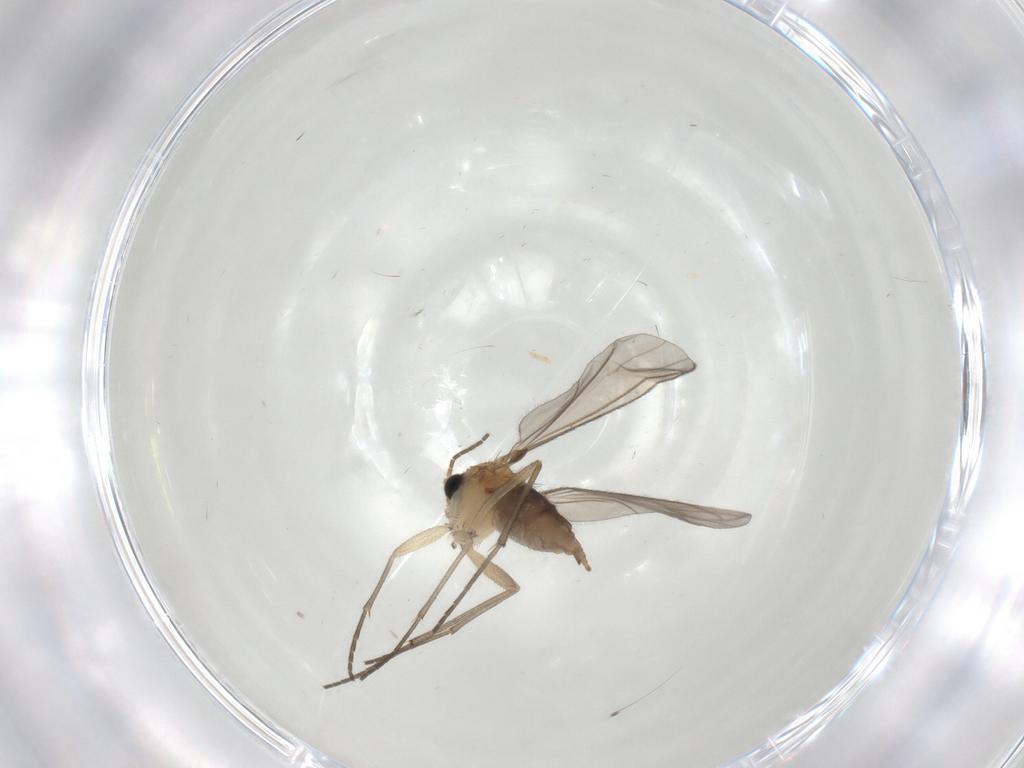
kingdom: Animalia
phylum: Arthropoda
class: Insecta
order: Diptera
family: Sciaridae
